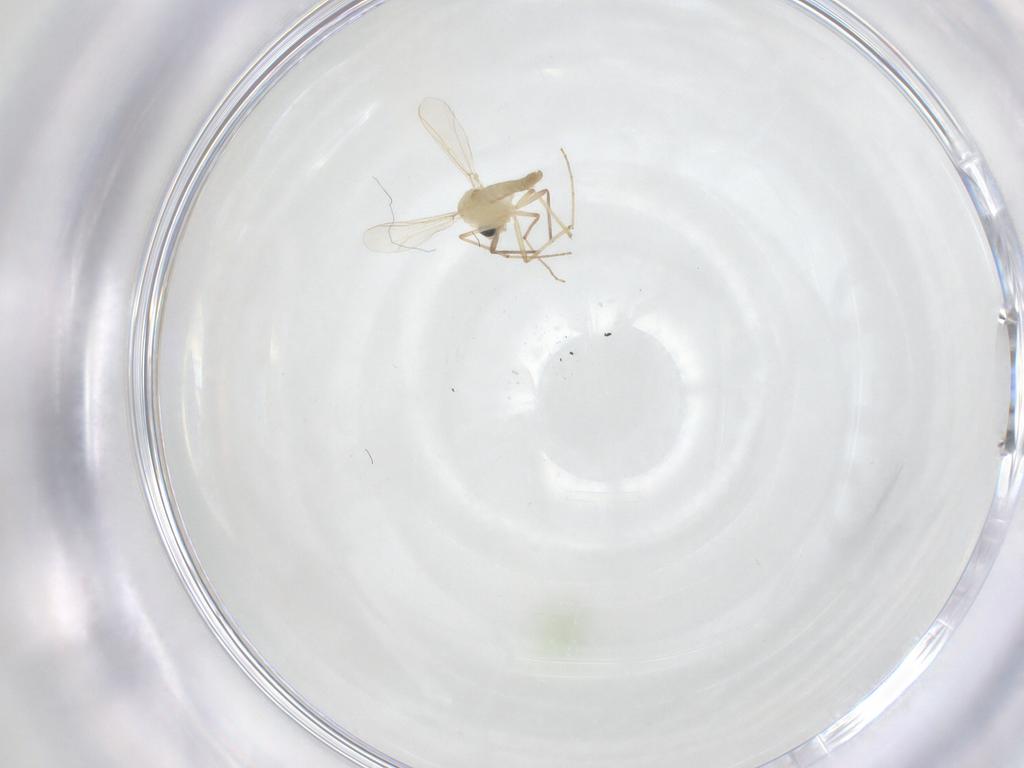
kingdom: Animalia
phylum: Arthropoda
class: Insecta
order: Diptera
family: Chironomidae
